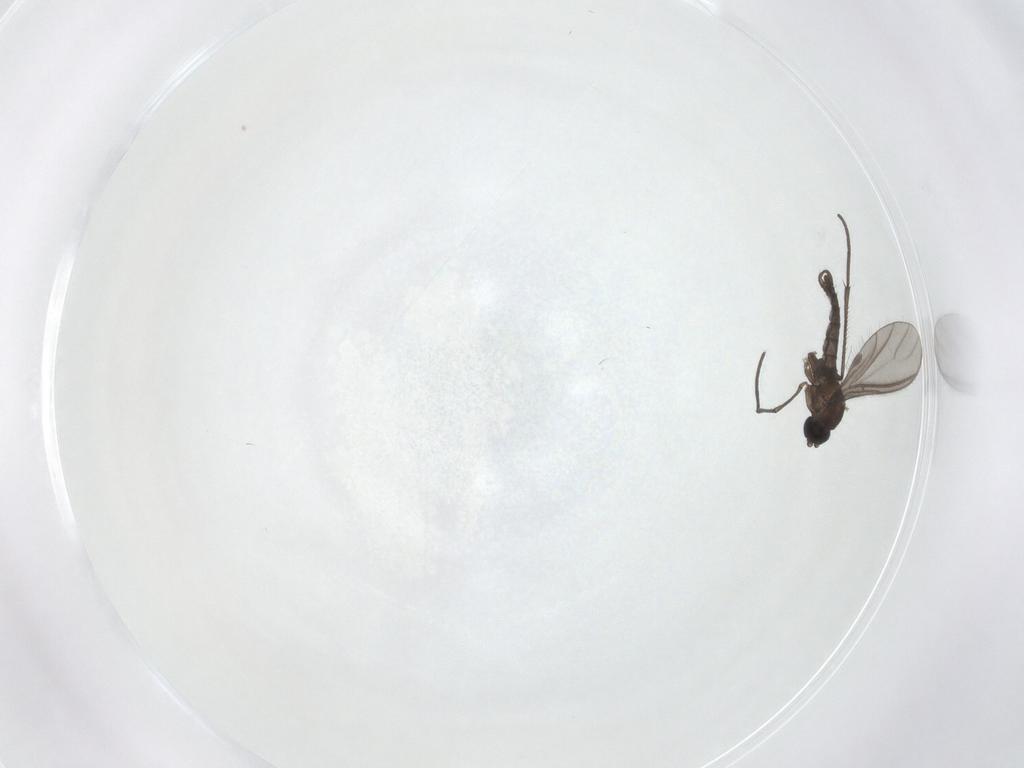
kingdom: Animalia
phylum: Arthropoda
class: Insecta
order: Diptera
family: Sciaridae
